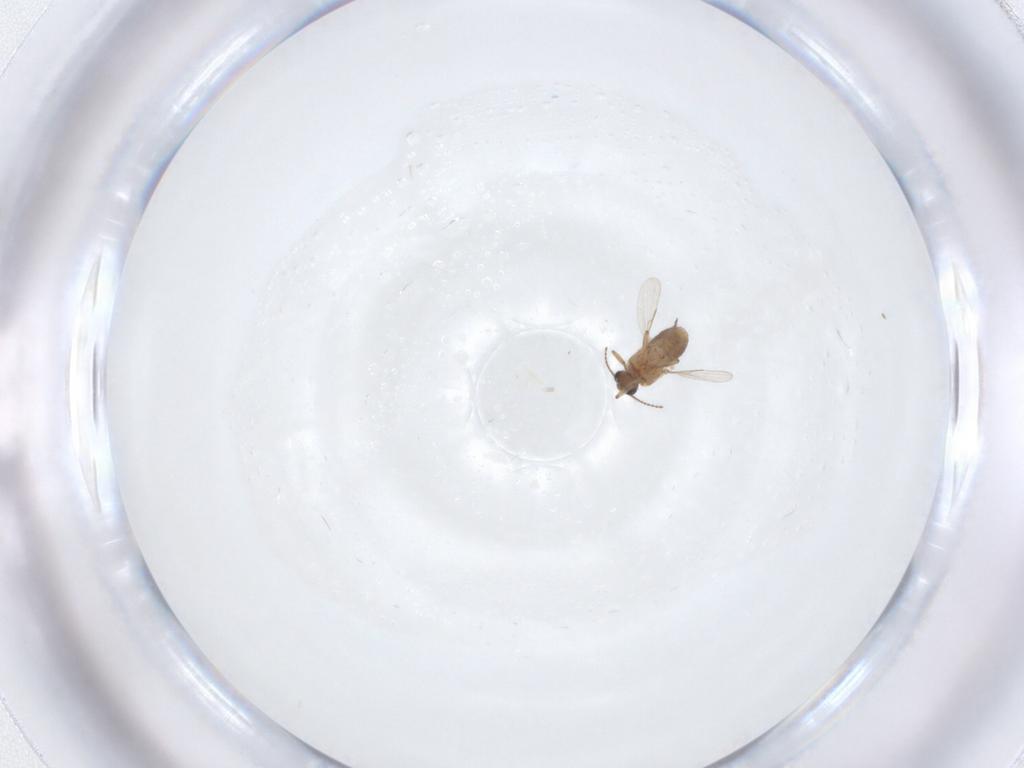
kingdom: Animalia
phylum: Arthropoda
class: Insecta
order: Diptera
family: Ceratopogonidae
